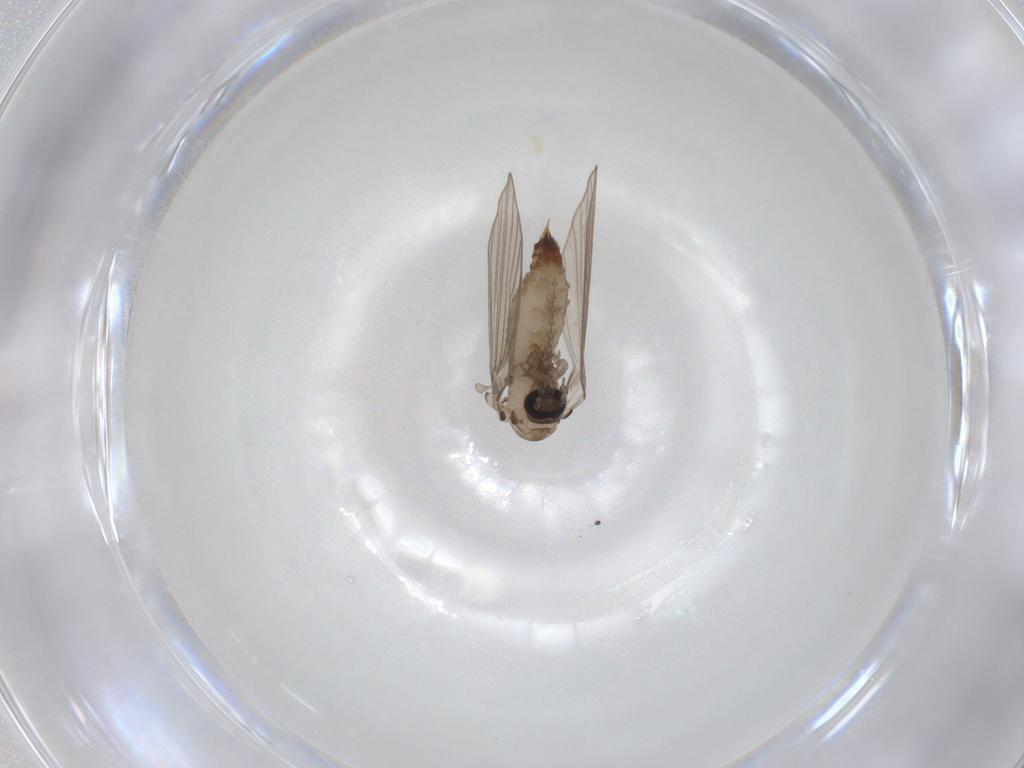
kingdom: Animalia
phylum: Arthropoda
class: Insecta
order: Diptera
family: Psychodidae
